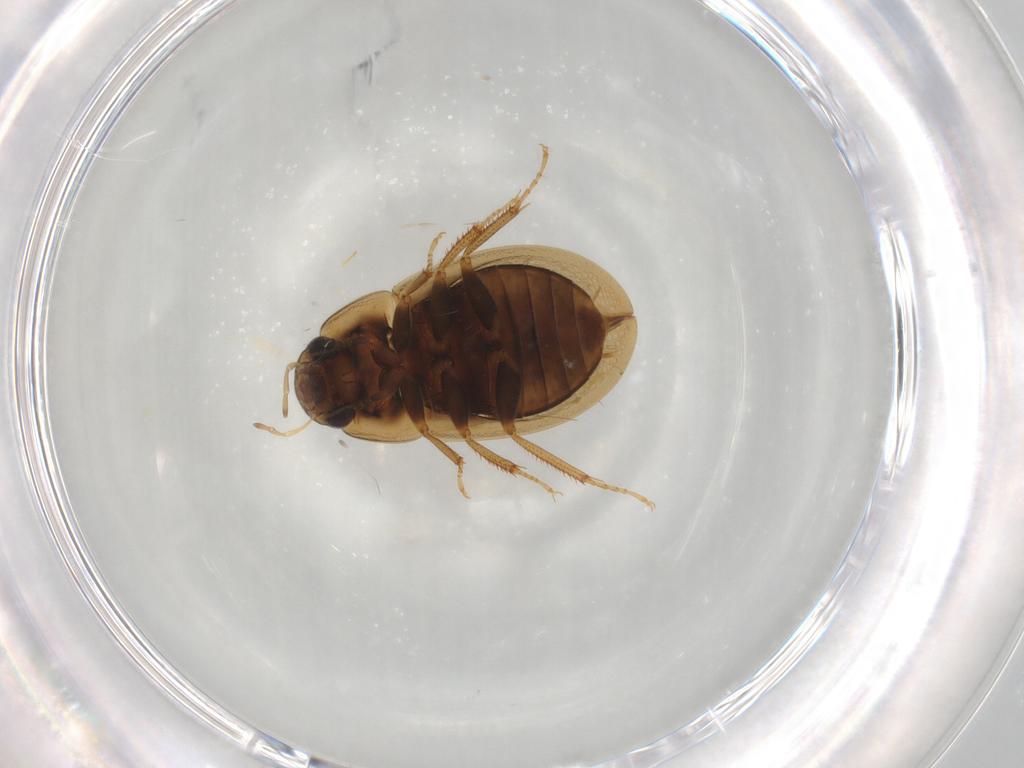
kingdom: Animalia
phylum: Arthropoda
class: Insecta
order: Coleoptera
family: Hydrophilidae
